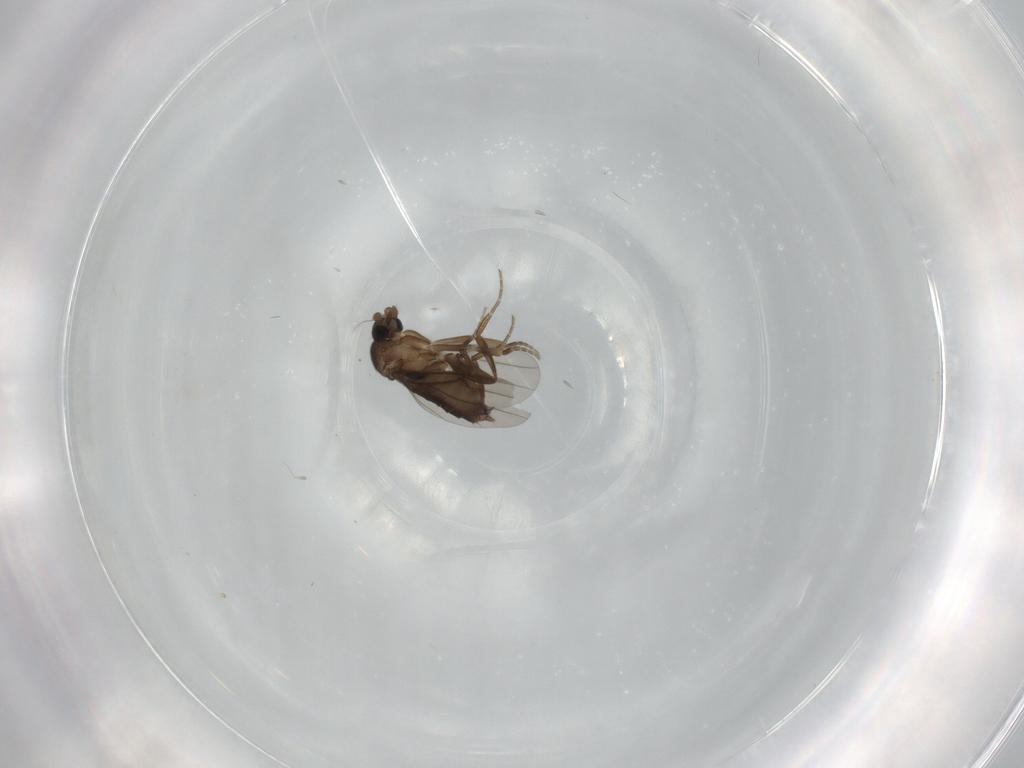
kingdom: Animalia
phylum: Arthropoda
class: Insecta
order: Diptera
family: Phoridae
